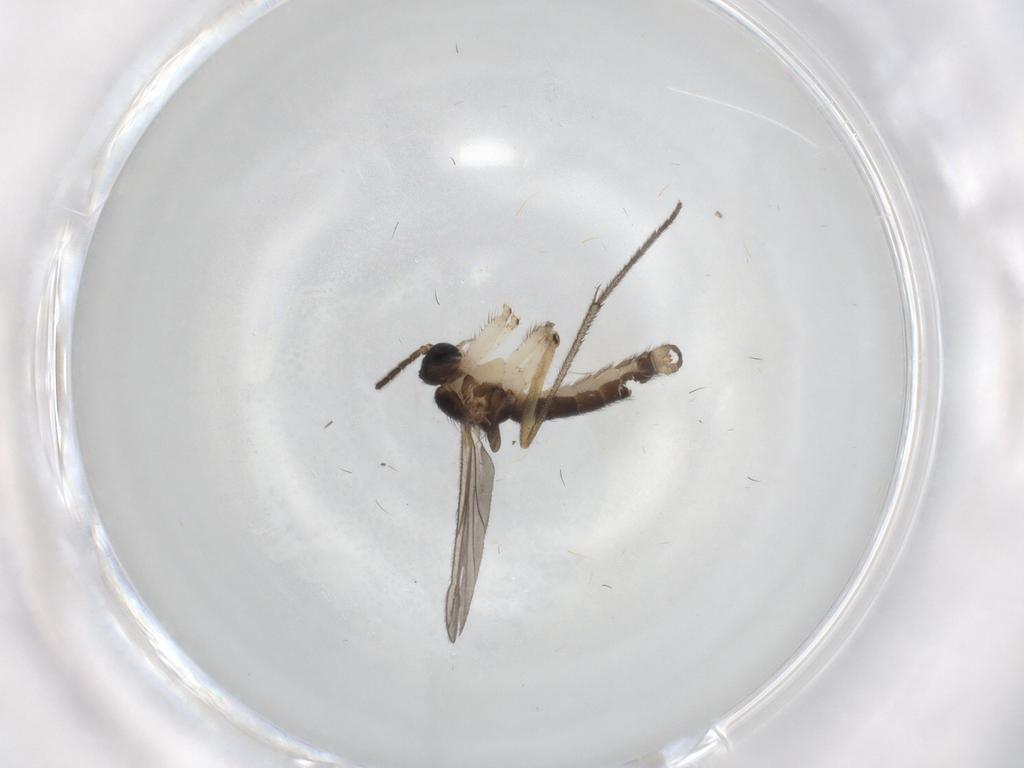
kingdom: Animalia
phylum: Arthropoda
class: Insecta
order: Diptera
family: Sciaridae
